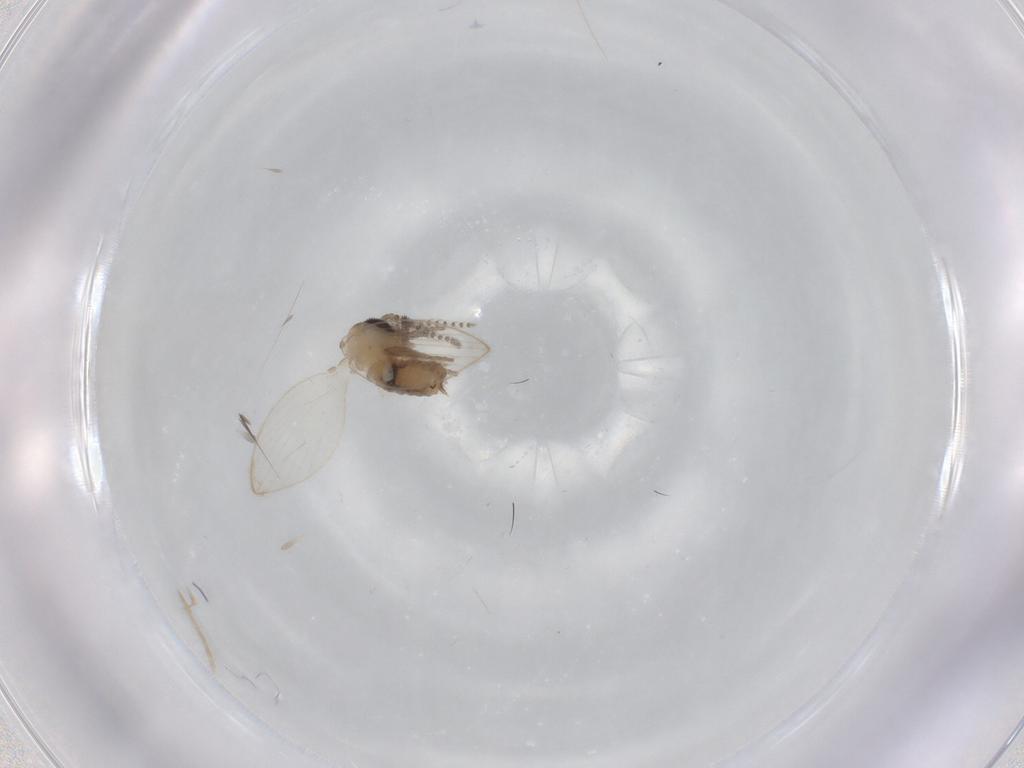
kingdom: Animalia
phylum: Arthropoda
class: Insecta
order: Diptera
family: Psychodidae
